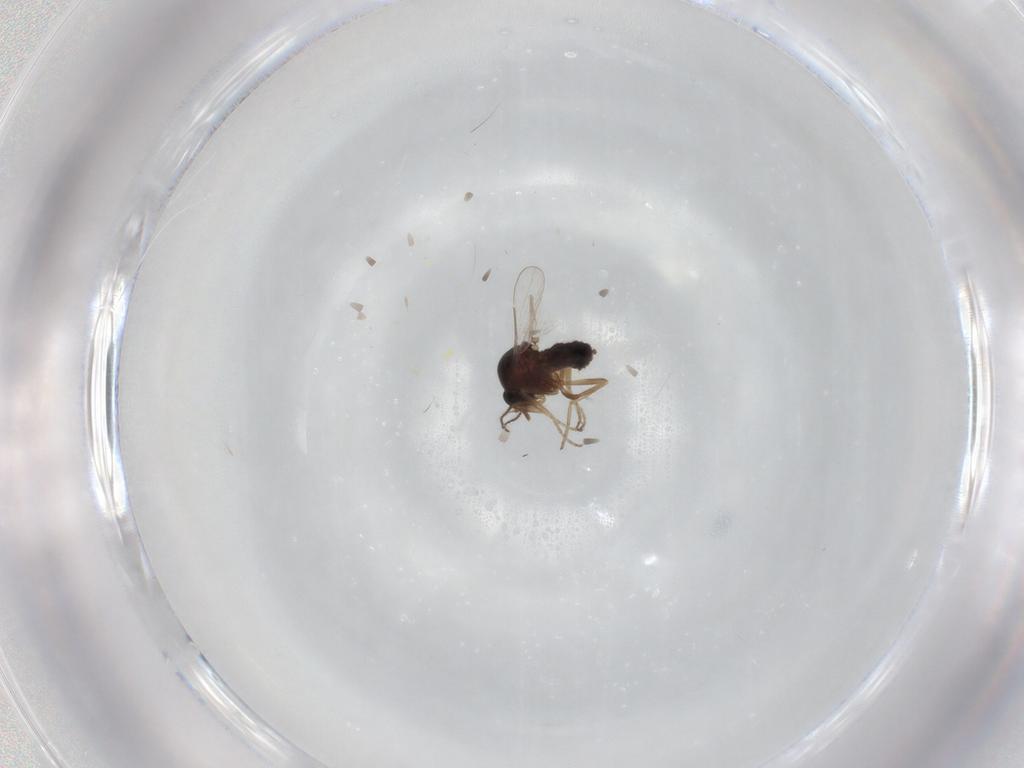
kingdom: Animalia
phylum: Arthropoda
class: Insecta
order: Diptera
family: Ceratopogonidae
